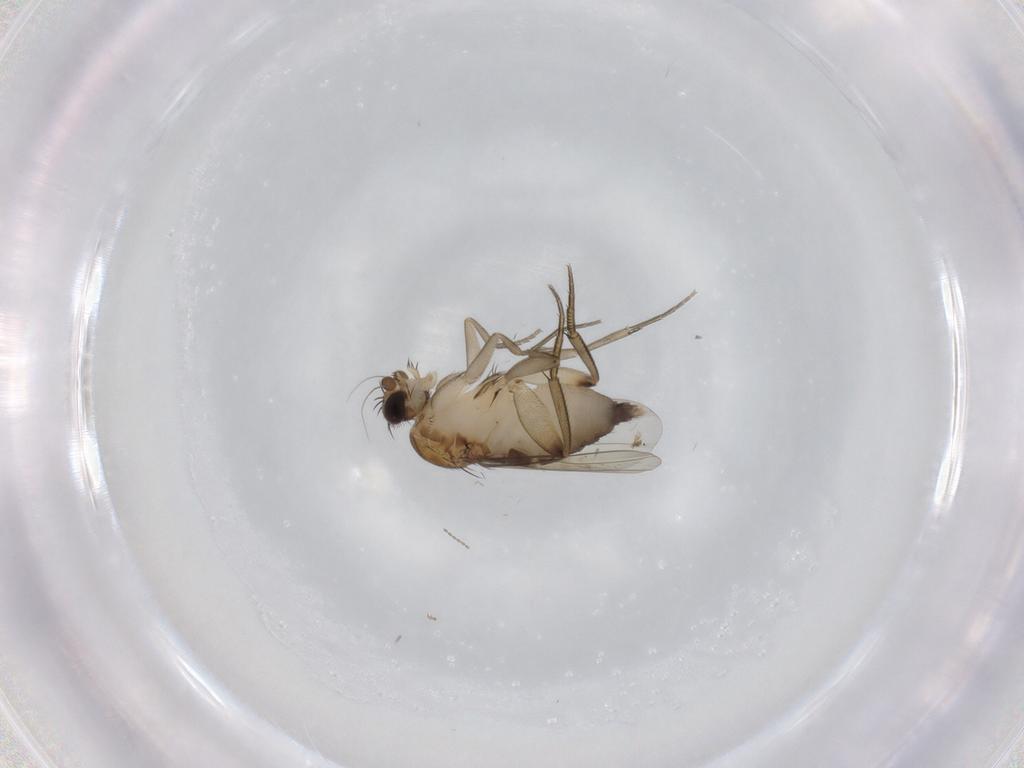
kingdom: Animalia
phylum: Arthropoda
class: Insecta
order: Diptera
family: Phoridae
